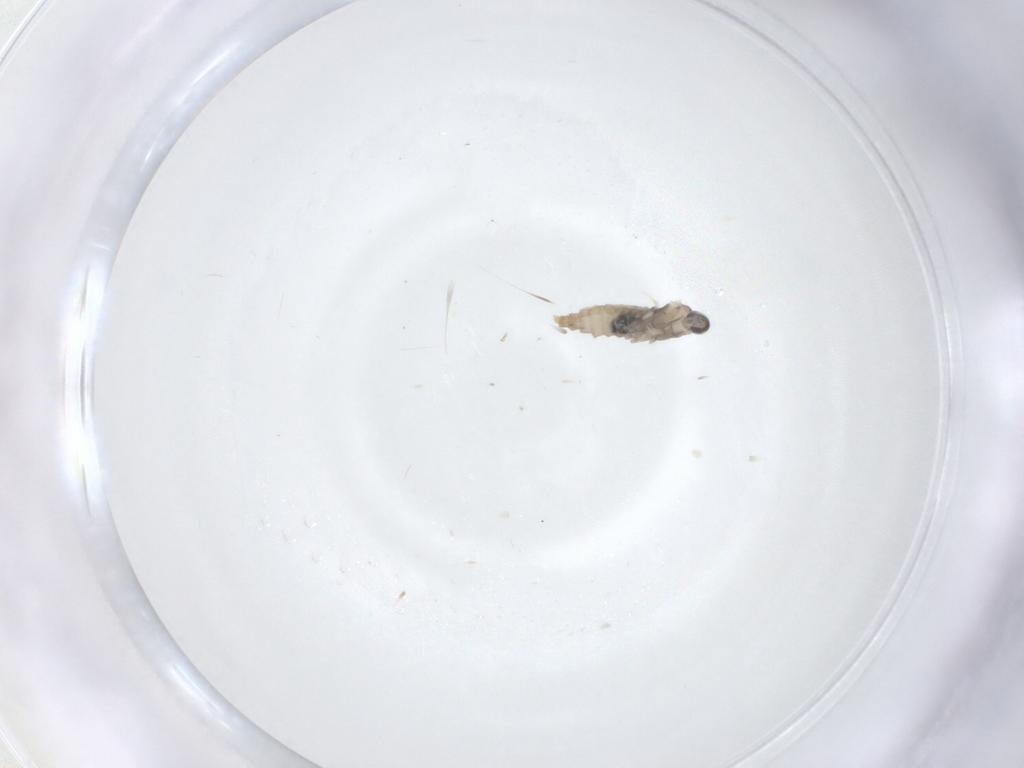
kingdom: Animalia
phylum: Arthropoda
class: Insecta
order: Diptera
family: Cecidomyiidae
